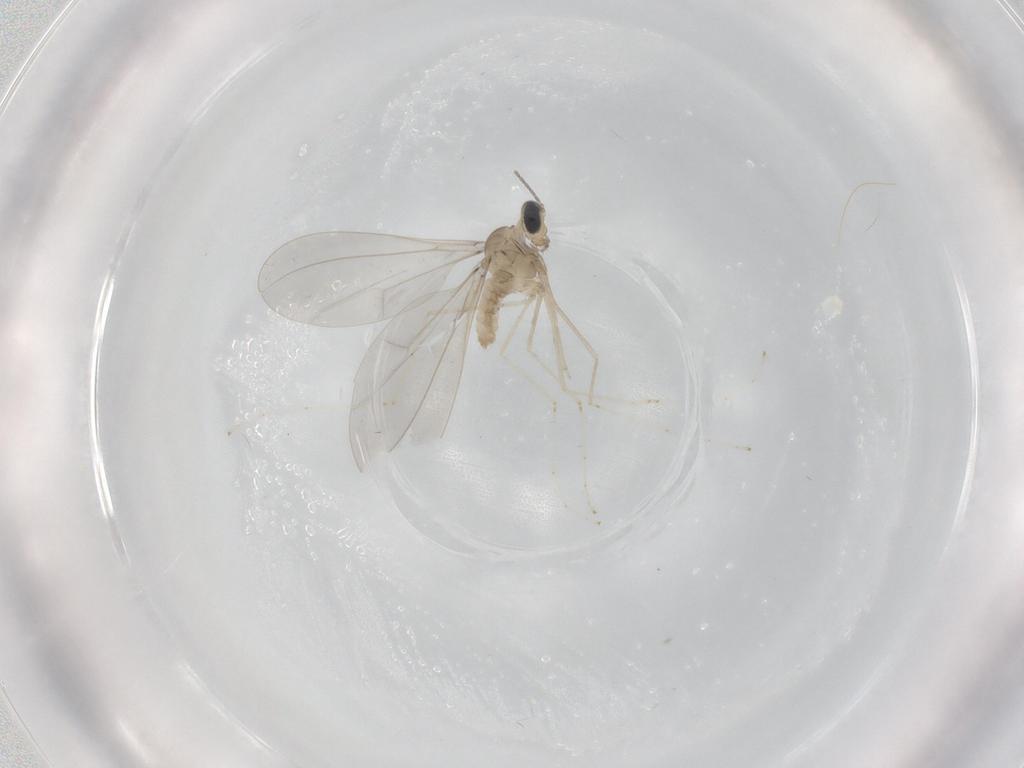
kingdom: Animalia
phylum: Arthropoda
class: Insecta
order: Diptera
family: Cecidomyiidae
